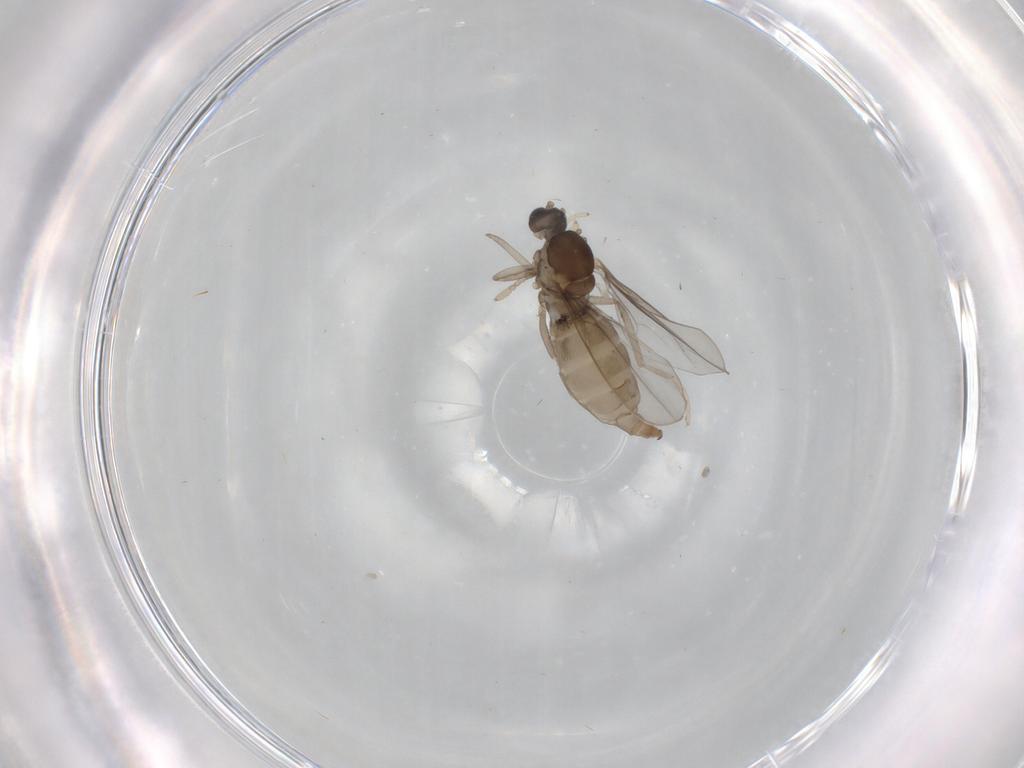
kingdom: Animalia
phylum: Arthropoda
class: Insecta
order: Diptera
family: Cecidomyiidae
